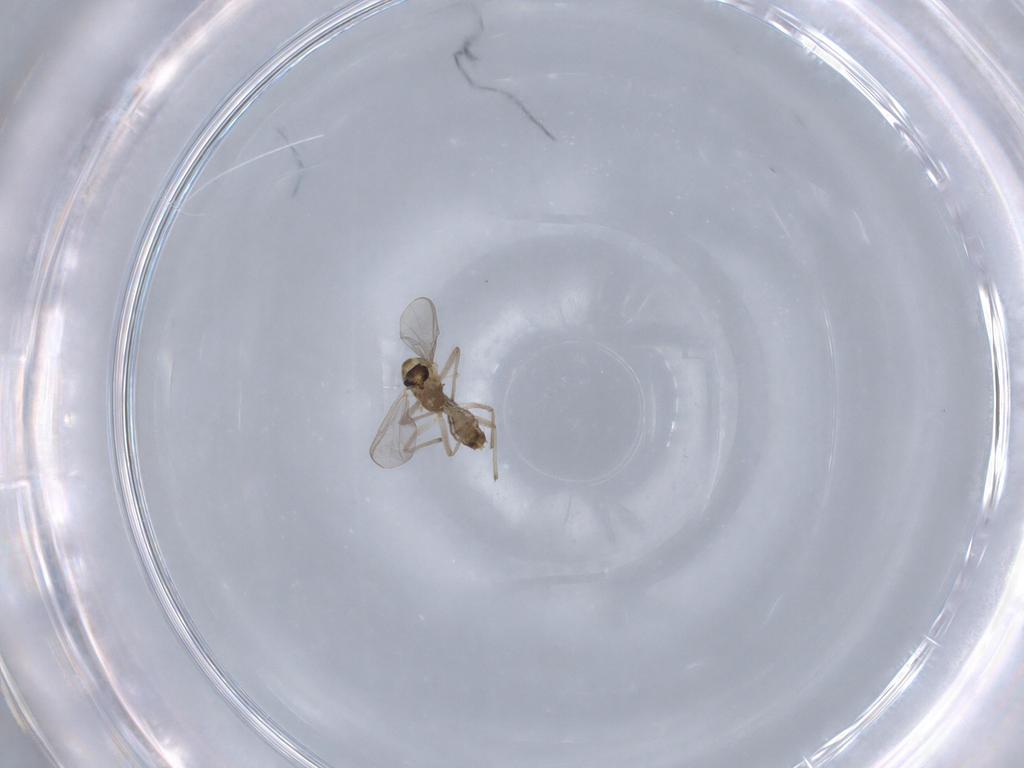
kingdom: Animalia
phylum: Arthropoda
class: Insecta
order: Diptera
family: Chironomidae
